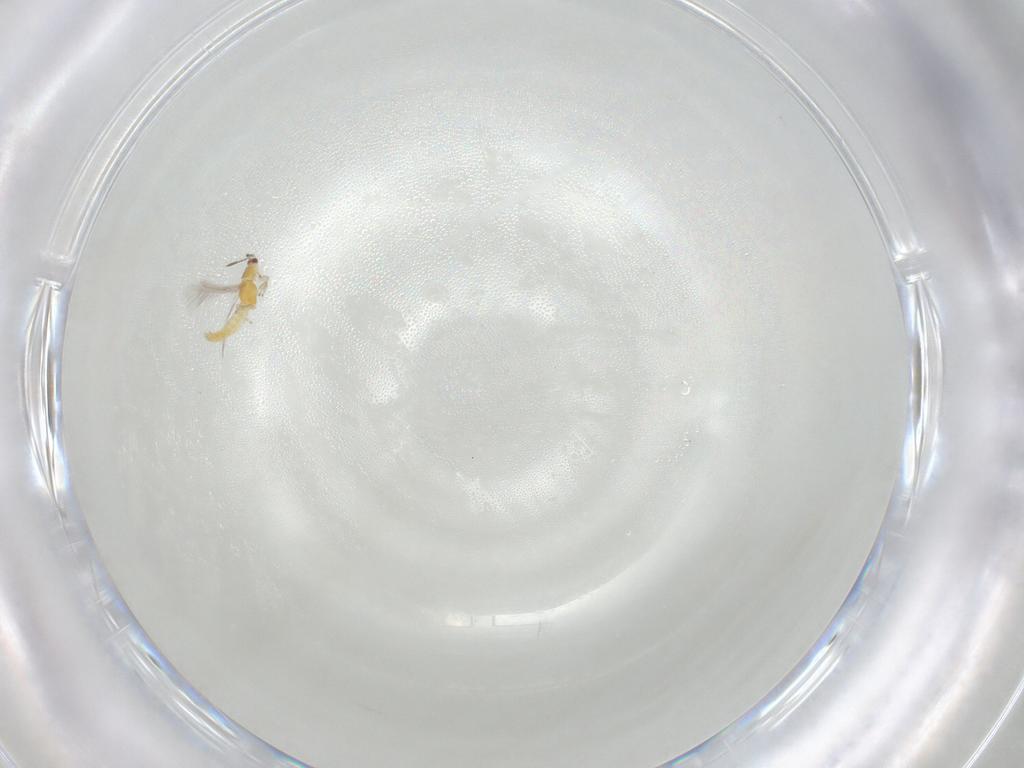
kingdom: Animalia
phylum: Arthropoda
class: Insecta
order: Thysanoptera
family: Thripidae
